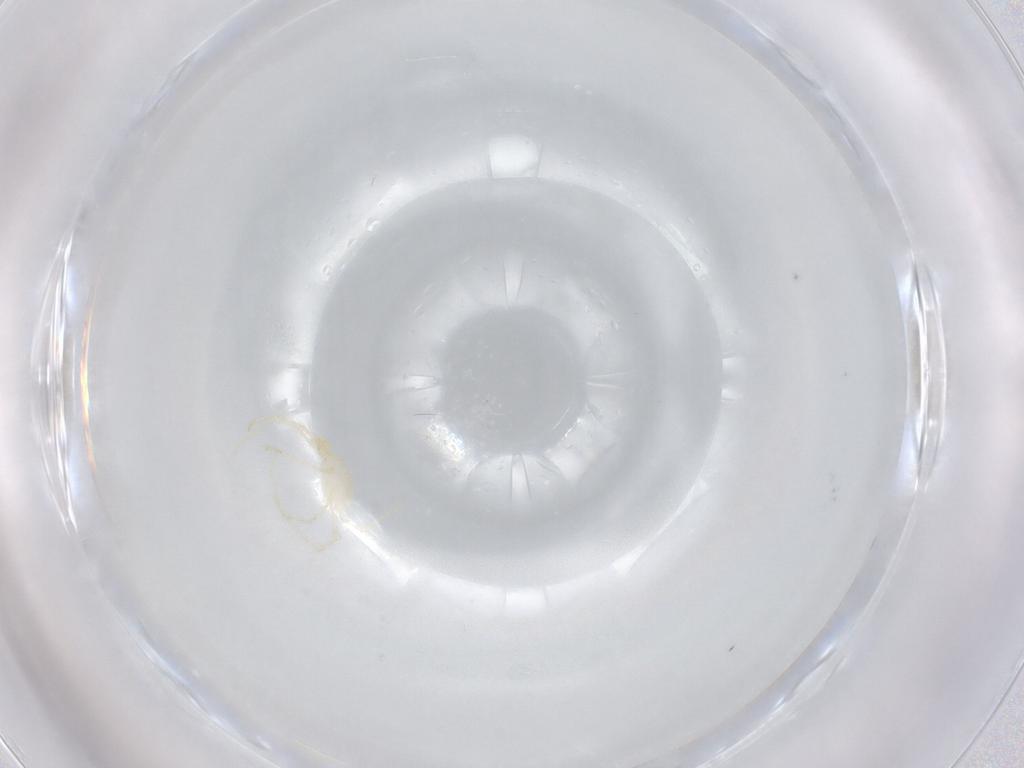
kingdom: Animalia
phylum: Arthropoda
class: Arachnida
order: Trombidiformes
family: Erythraeidae
